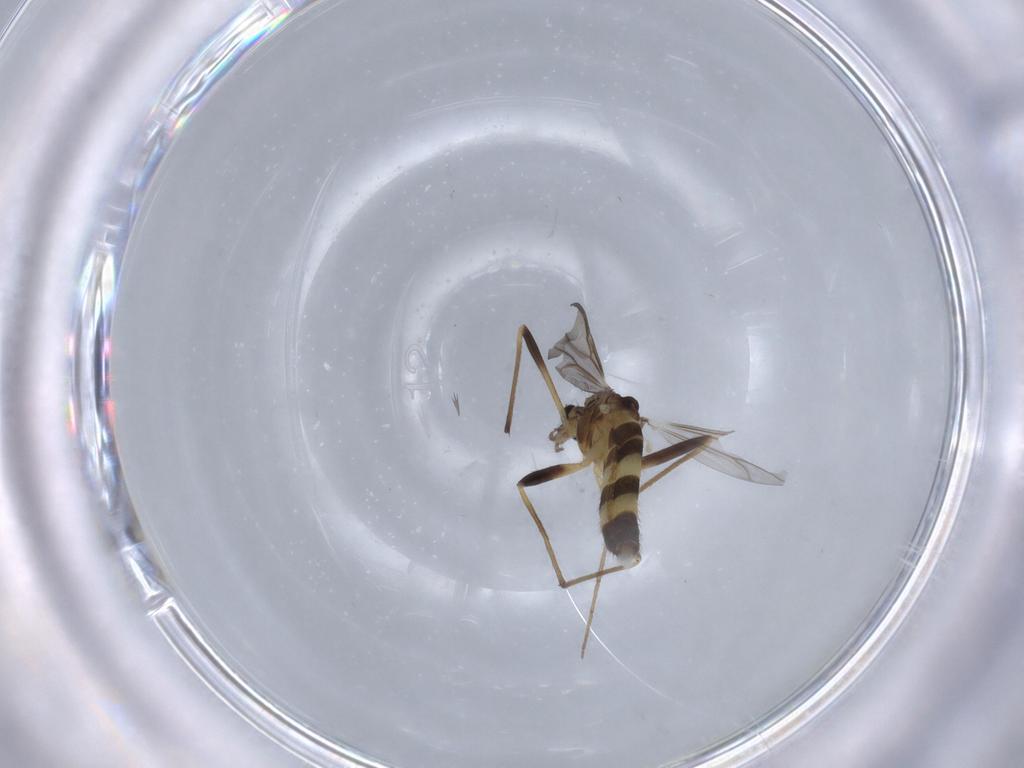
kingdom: Animalia
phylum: Arthropoda
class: Insecta
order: Diptera
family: Chironomidae
